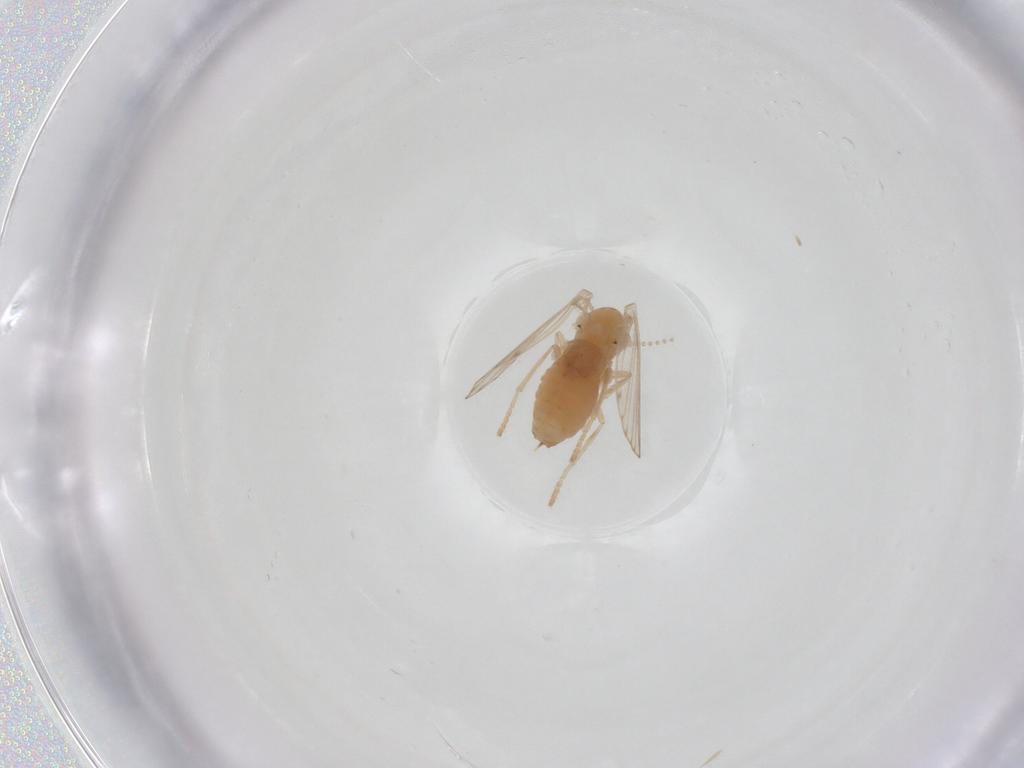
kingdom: Animalia
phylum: Arthropoda
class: Insecta
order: Diptera
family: Psychodidae
